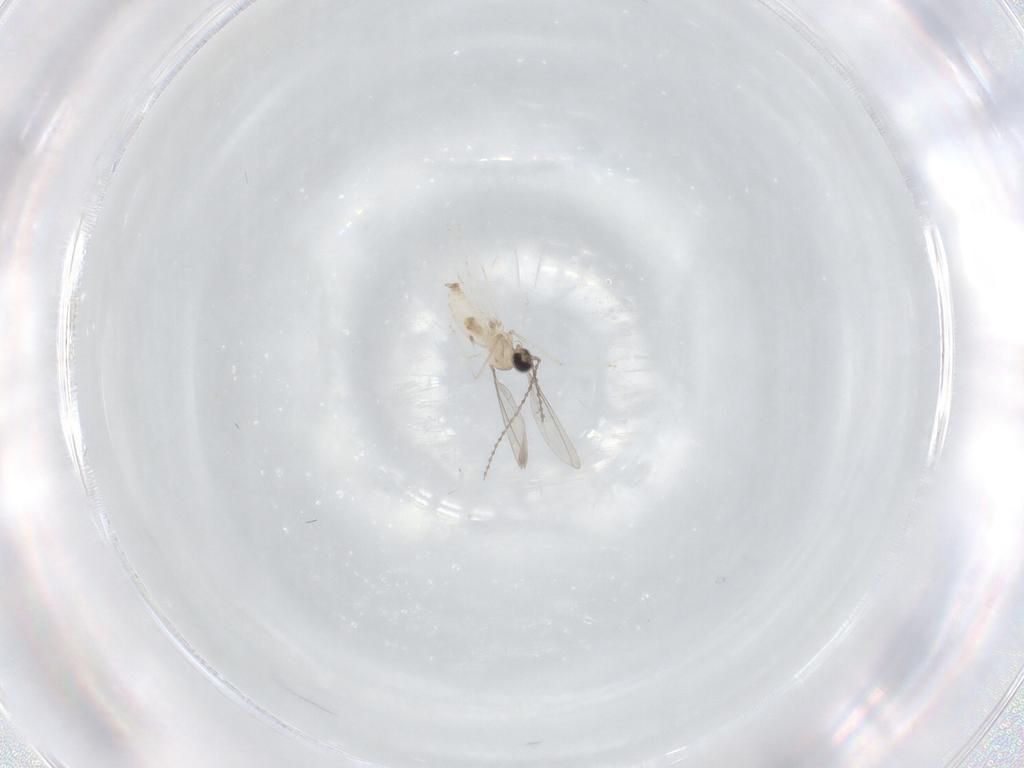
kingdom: Animalia
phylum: Arthropoda
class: Insecta
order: Diptera
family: Cecidomyiidae
